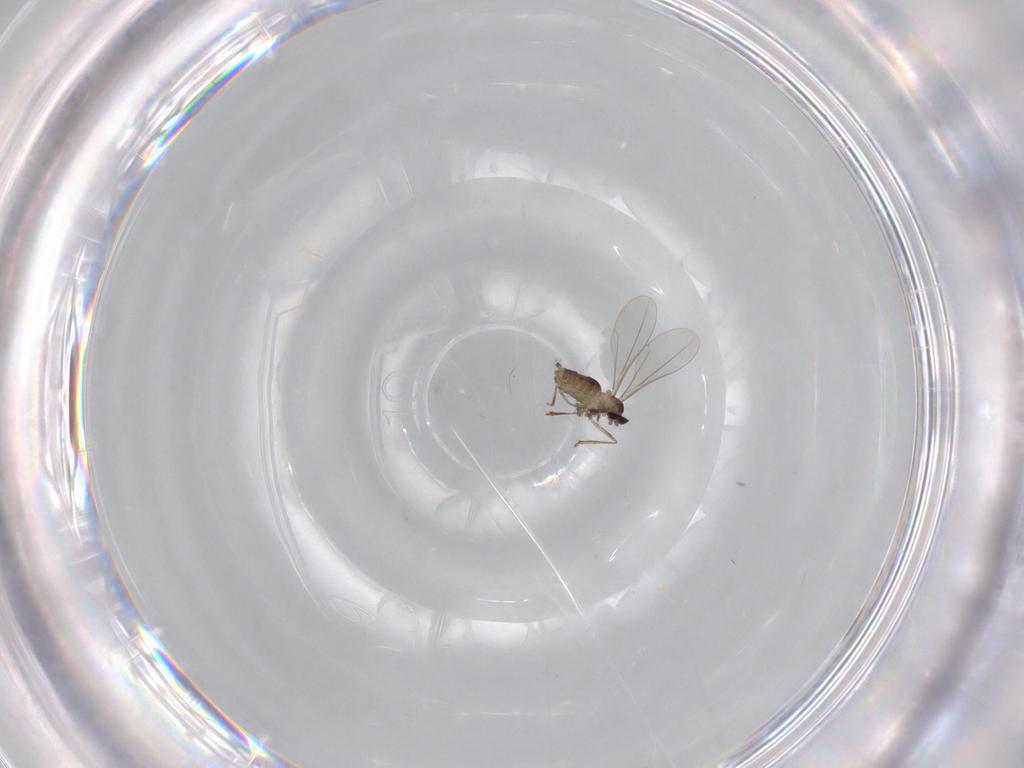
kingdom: Animalia
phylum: Arthropoda
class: Insecta
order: Diptera
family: Cecidomyiidae
